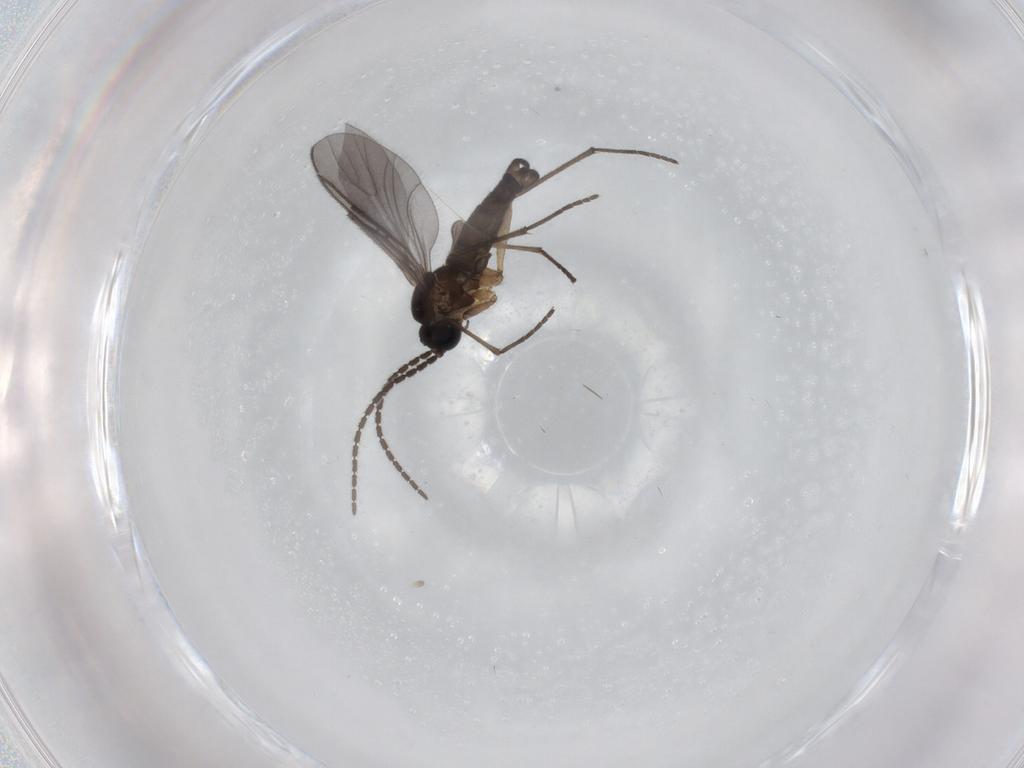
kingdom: Animalia
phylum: Arthropoda
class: Insecta
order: Diptera
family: Sciaridae
